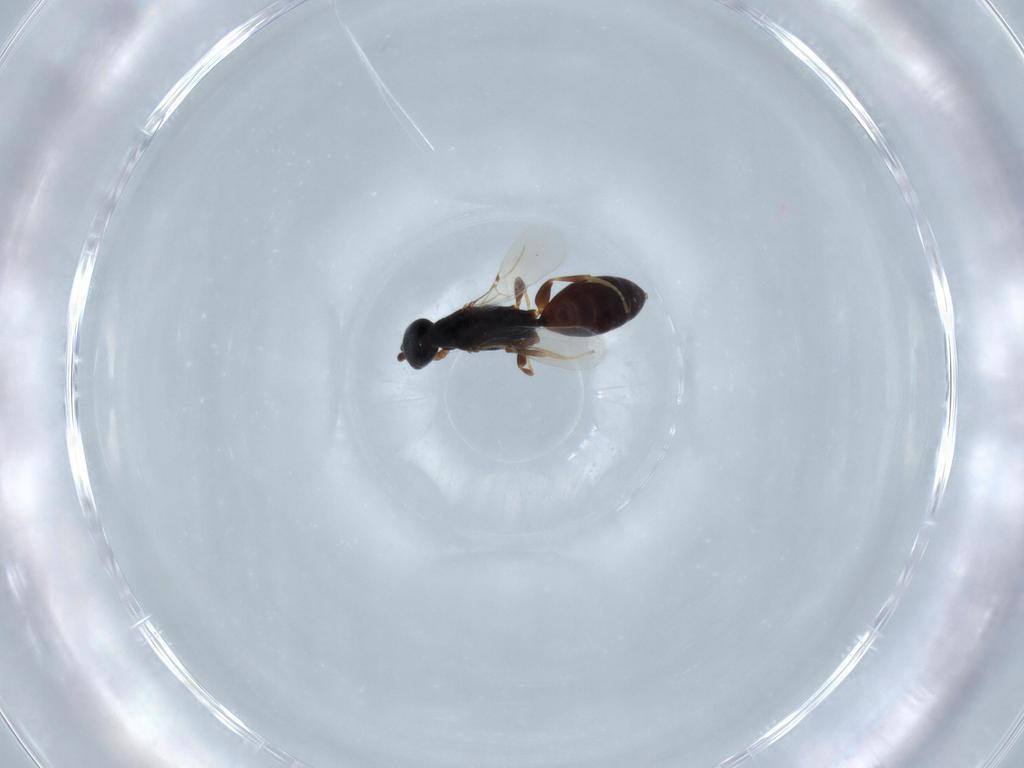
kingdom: Animalia
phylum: Arthropoda
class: Insecta
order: Hymenoptera
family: Bethylidae
